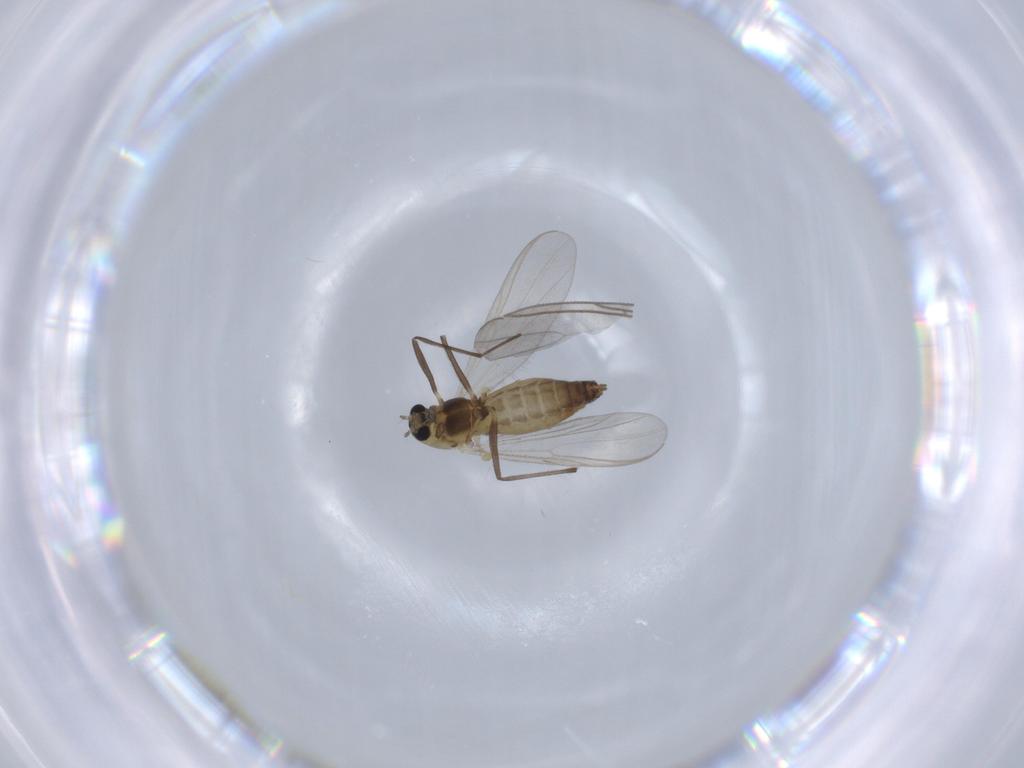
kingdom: Animalia
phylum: Arthropoda
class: Insecta
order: Diptera
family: Chironomidae
